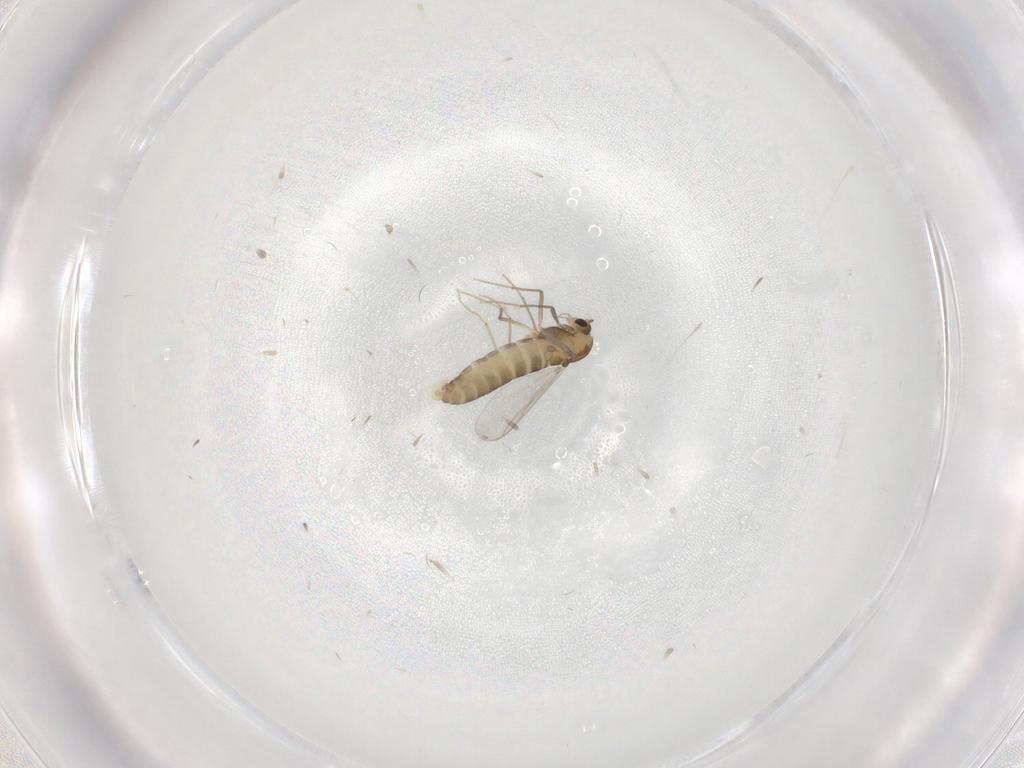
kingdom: Animalia
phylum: Arthropoda
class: Insecta
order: Diptera
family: Chironomidae
